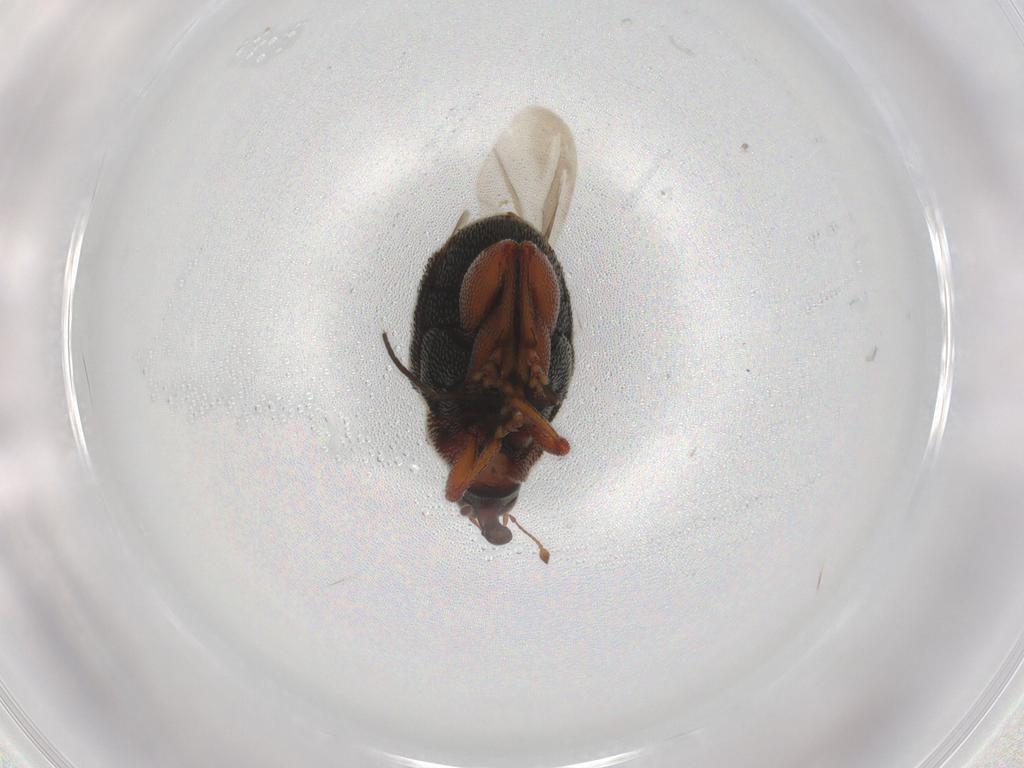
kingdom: Animalia
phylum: Arthropoda
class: Insecta
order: Coleoptera
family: Curculionidae
